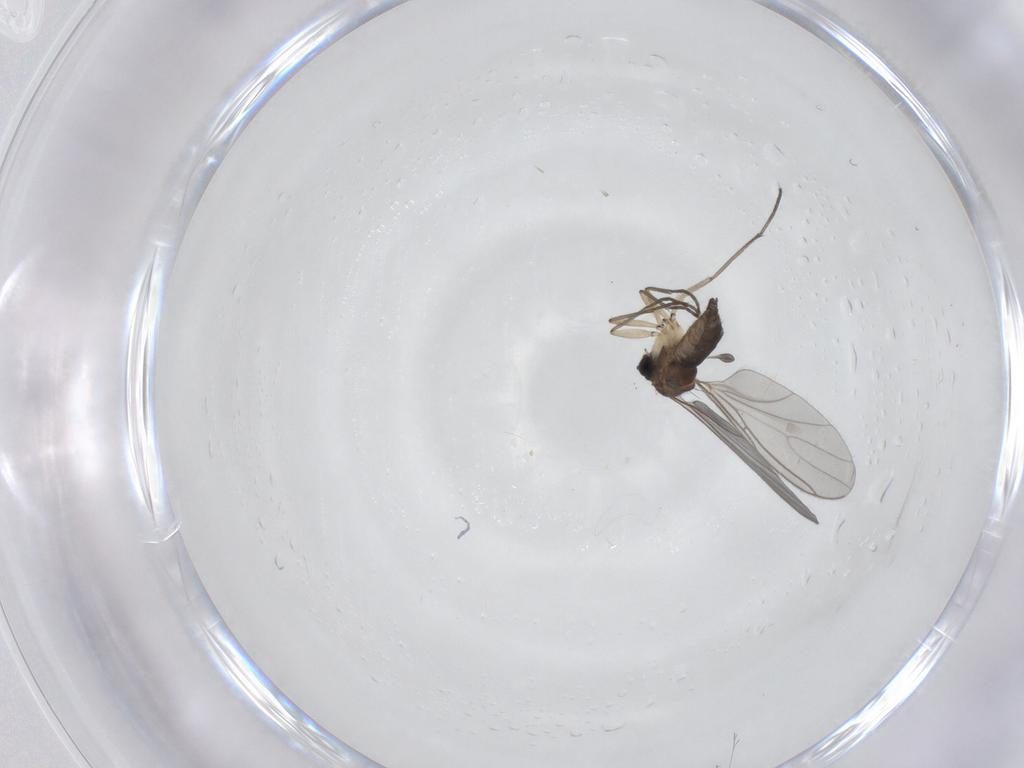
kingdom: Animalia
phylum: Arthropoda
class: Insecta
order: Diptera
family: Sciaridae
